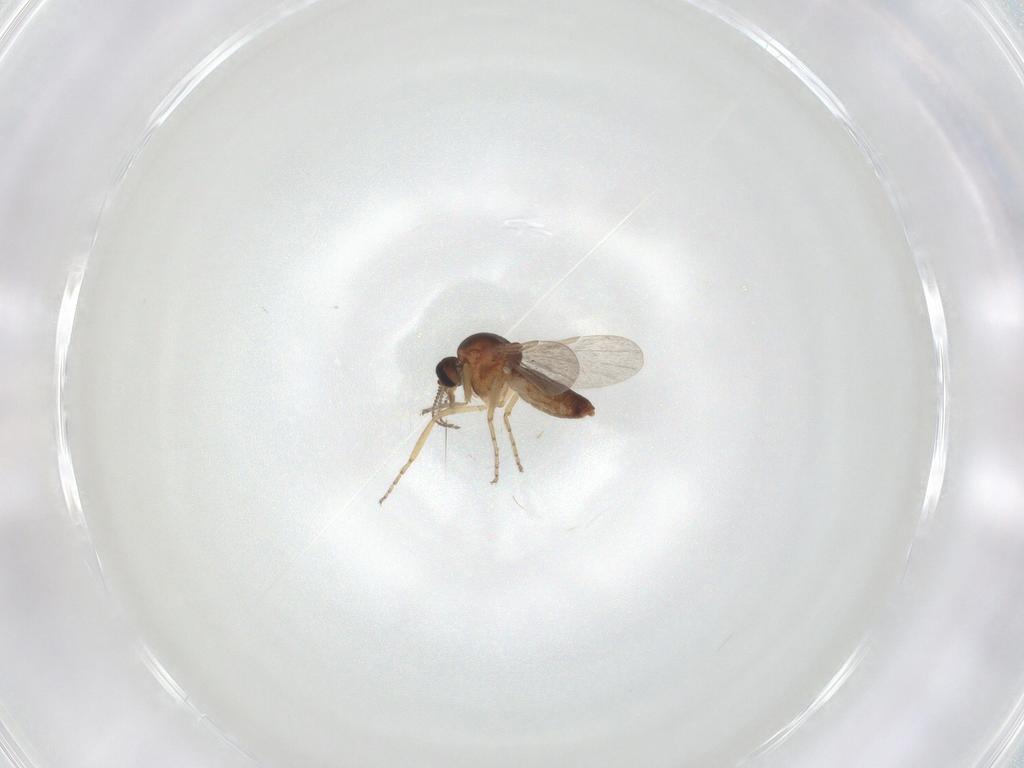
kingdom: Animalia
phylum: Arthropoda
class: Insecta
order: Diptera
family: Ceratopogonidae
